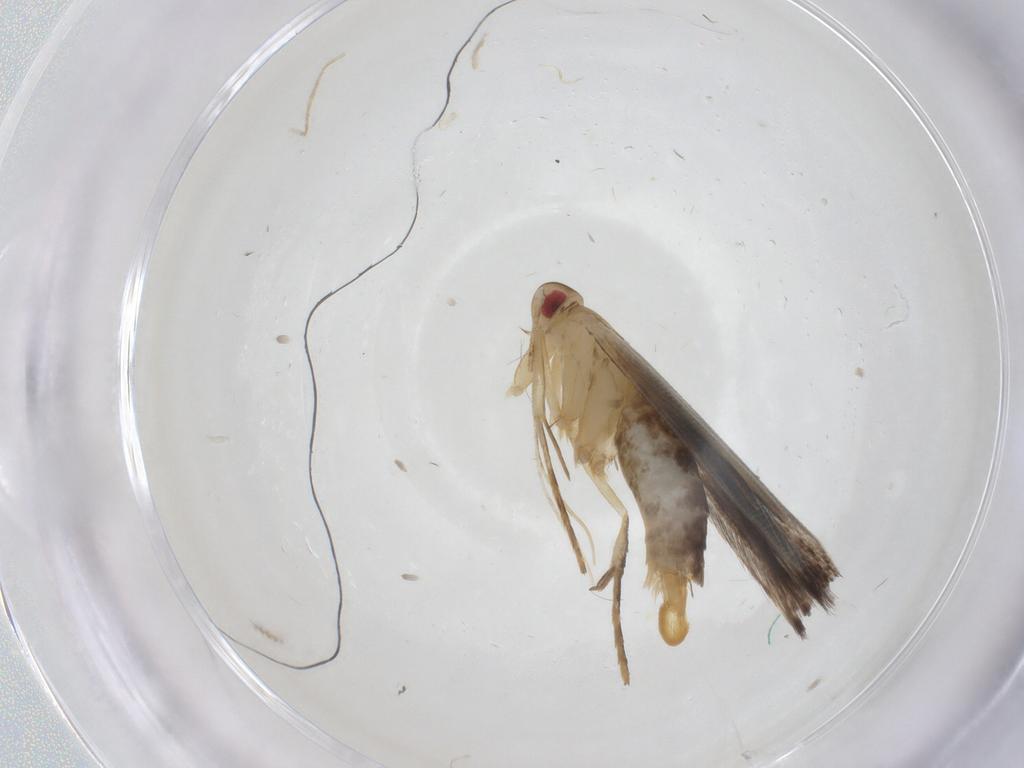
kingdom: Animalia
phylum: Arthropoda
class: Insecta
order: Lepidoptera
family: Cosmopterigidae
